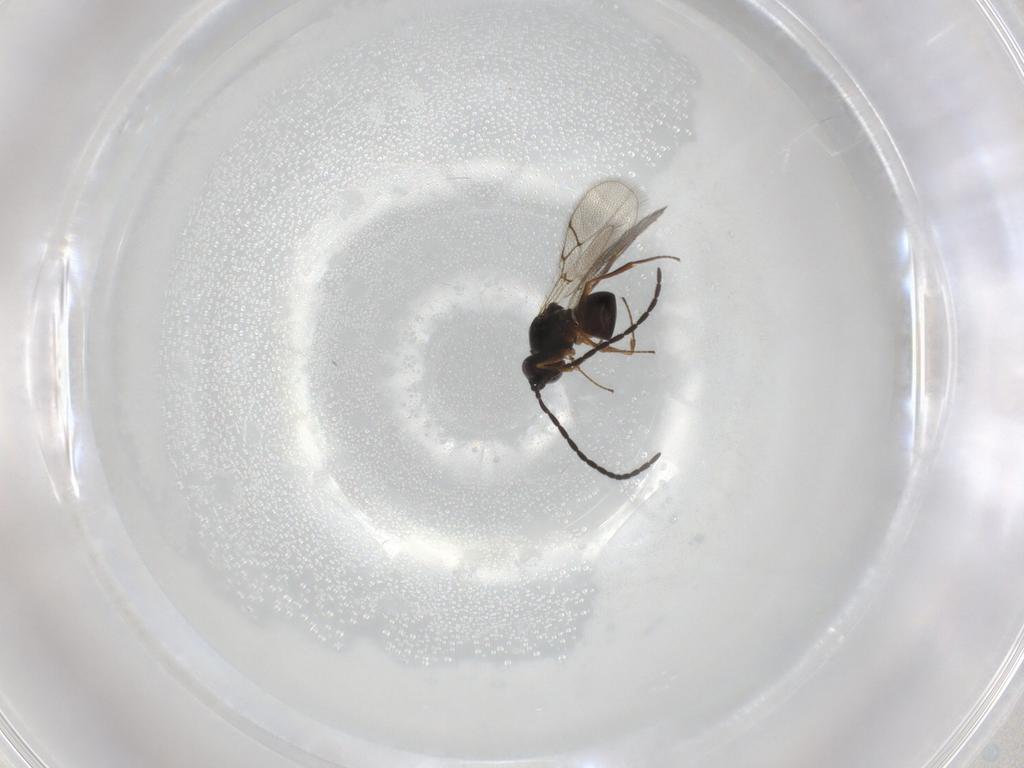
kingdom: Animalia
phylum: Arthropoda
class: Insecta
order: Hymenoptera
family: Figitidae
